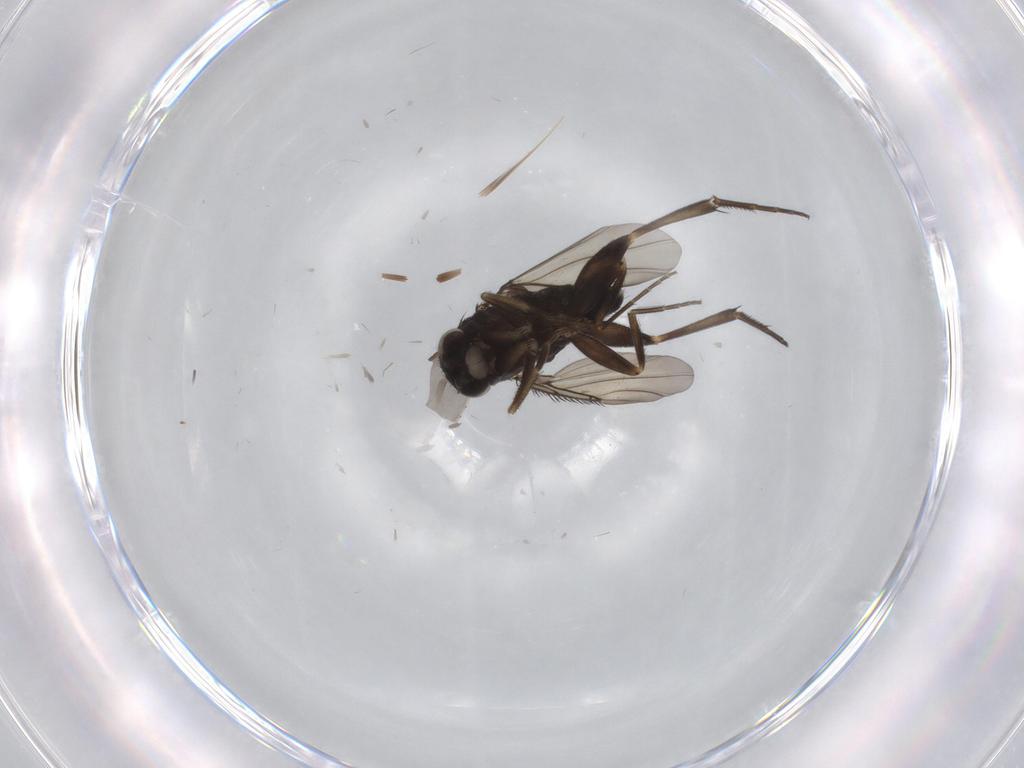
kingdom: Animalia
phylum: Arthropoda
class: Insecta
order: Diptera
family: Phoridae
